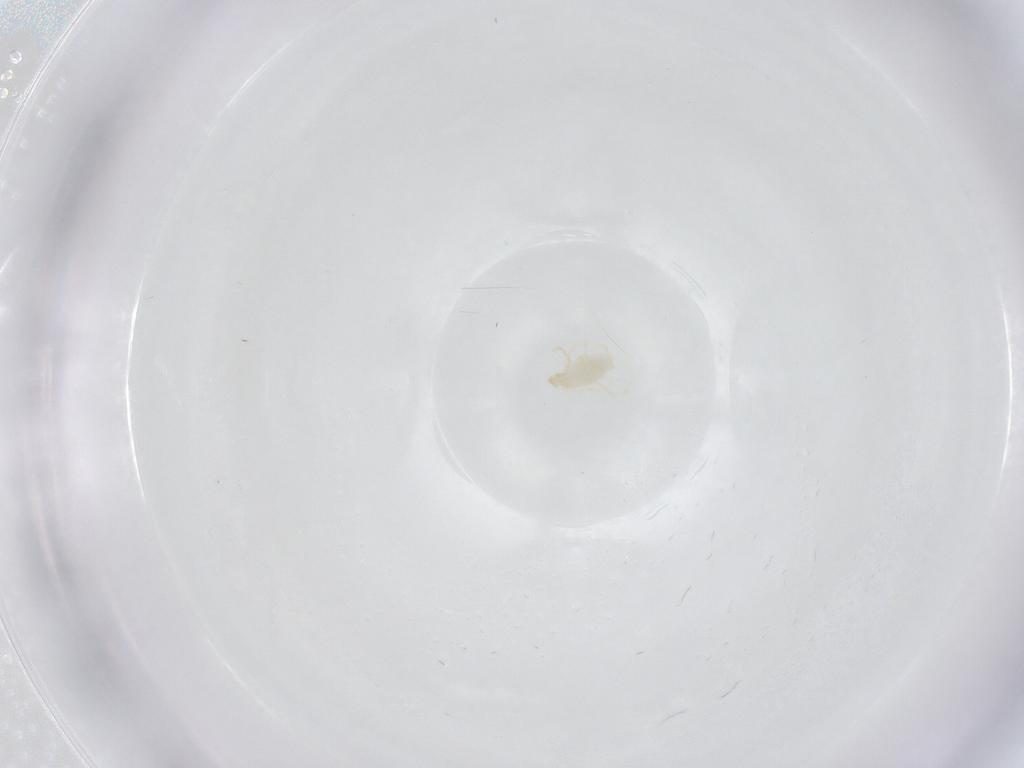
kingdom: Animalia
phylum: Arthropoda
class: Arachnida
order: Trombidiformes
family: Erythraeidae
